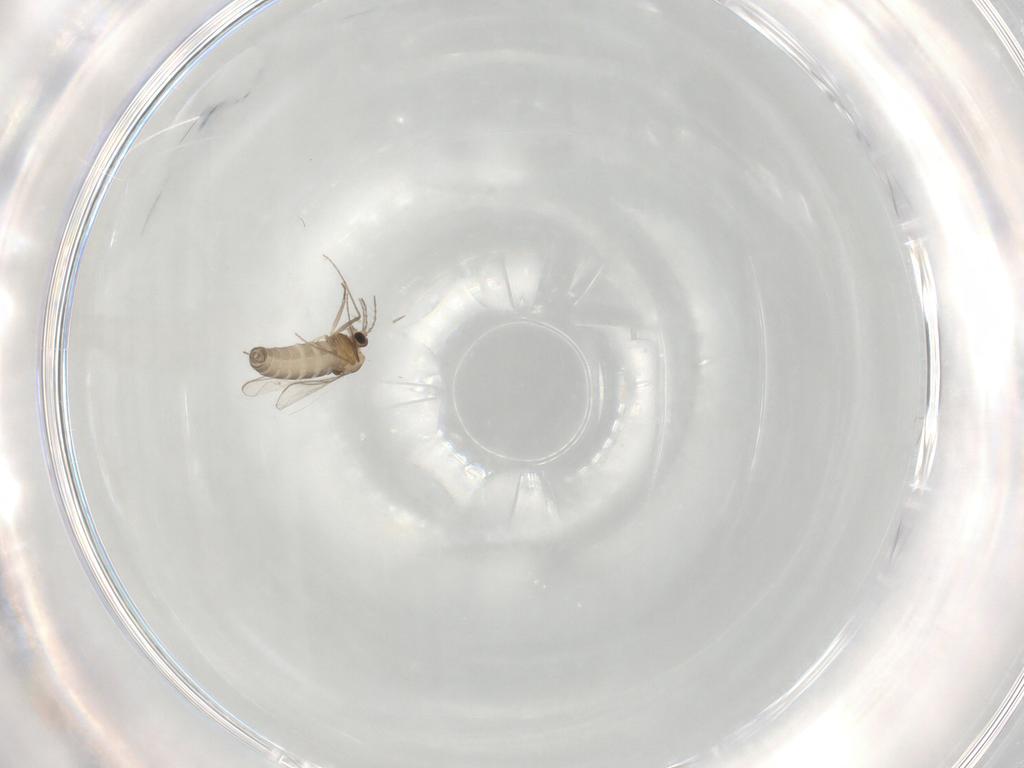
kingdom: Animalia
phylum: Arthropoda
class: Insecta
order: Diptera
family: Chironomidae
